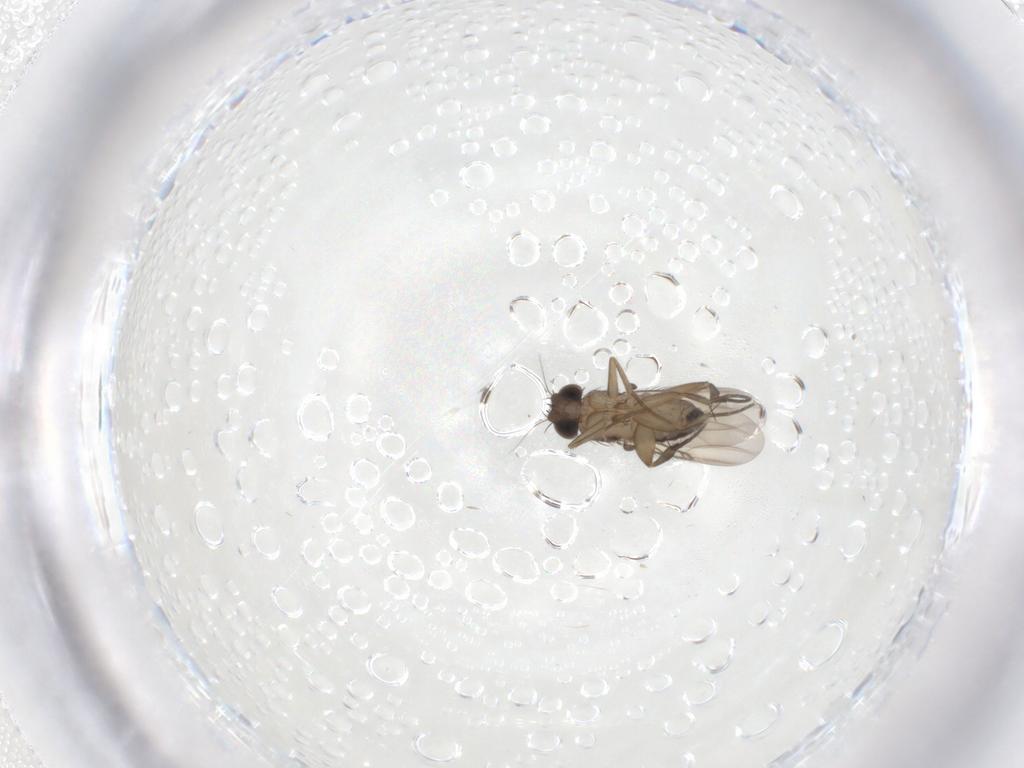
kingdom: Animalia
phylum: Arthropoda
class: Insecta
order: Diptera
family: Phoridae
